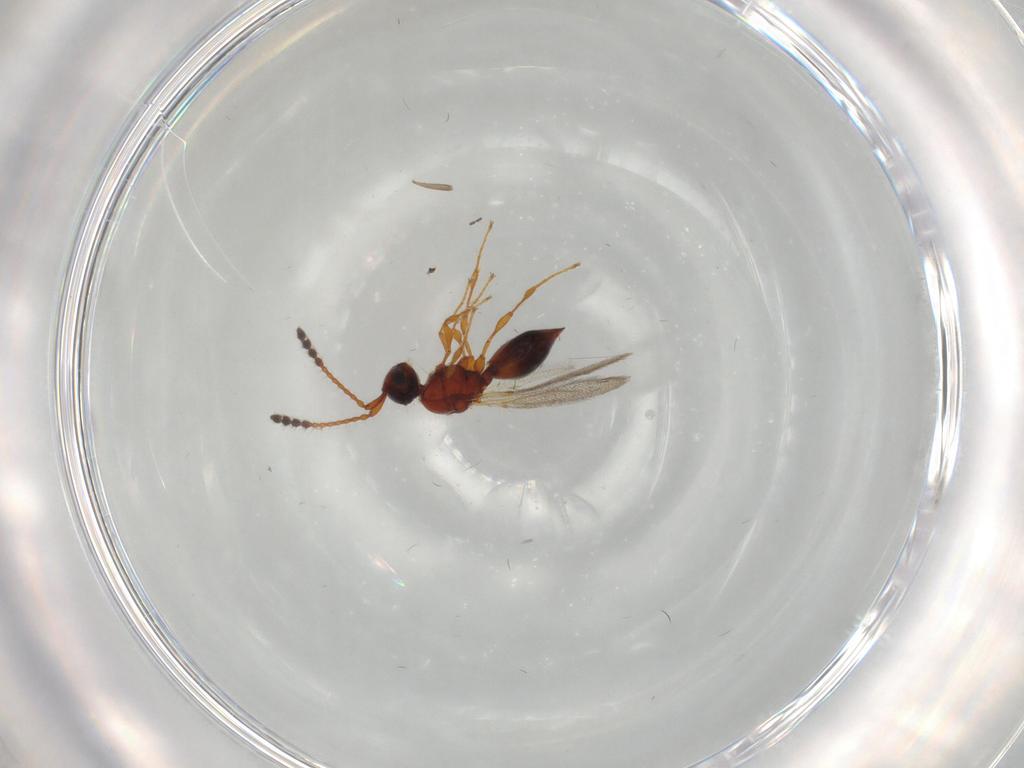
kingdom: Animalia
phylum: Arthropoda
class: Insecta
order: Hymenoptera
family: Diapriidae
